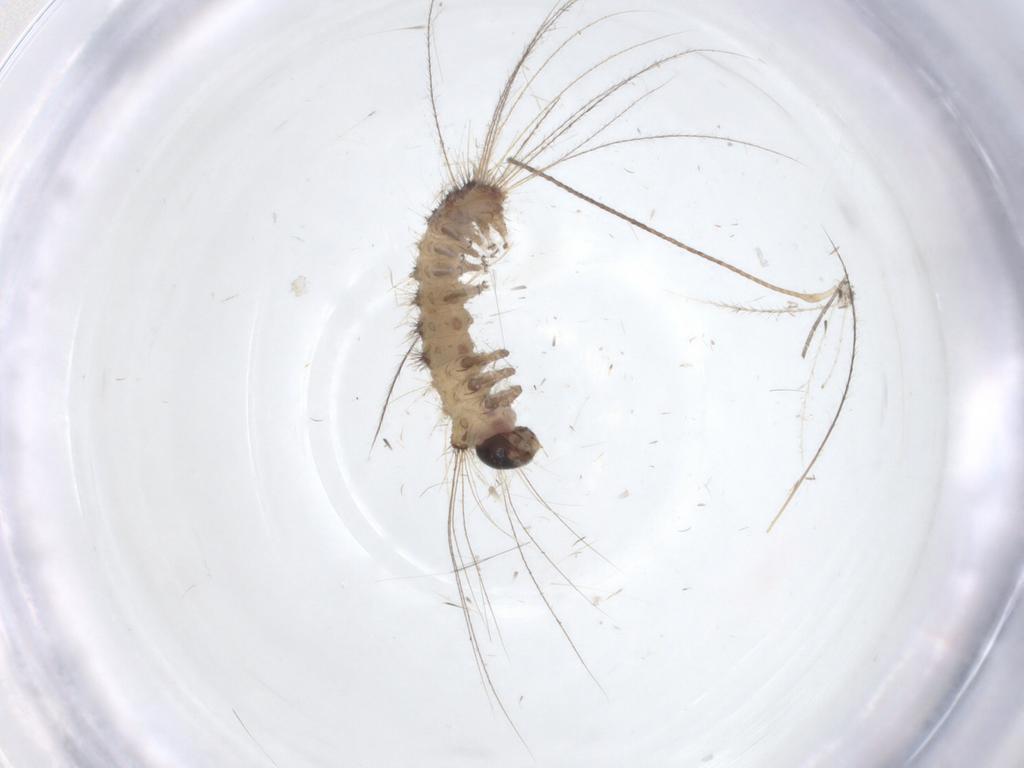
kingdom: Animalia
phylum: Arthropoda
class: Insecta
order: Lepidoptera
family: Erebidae
